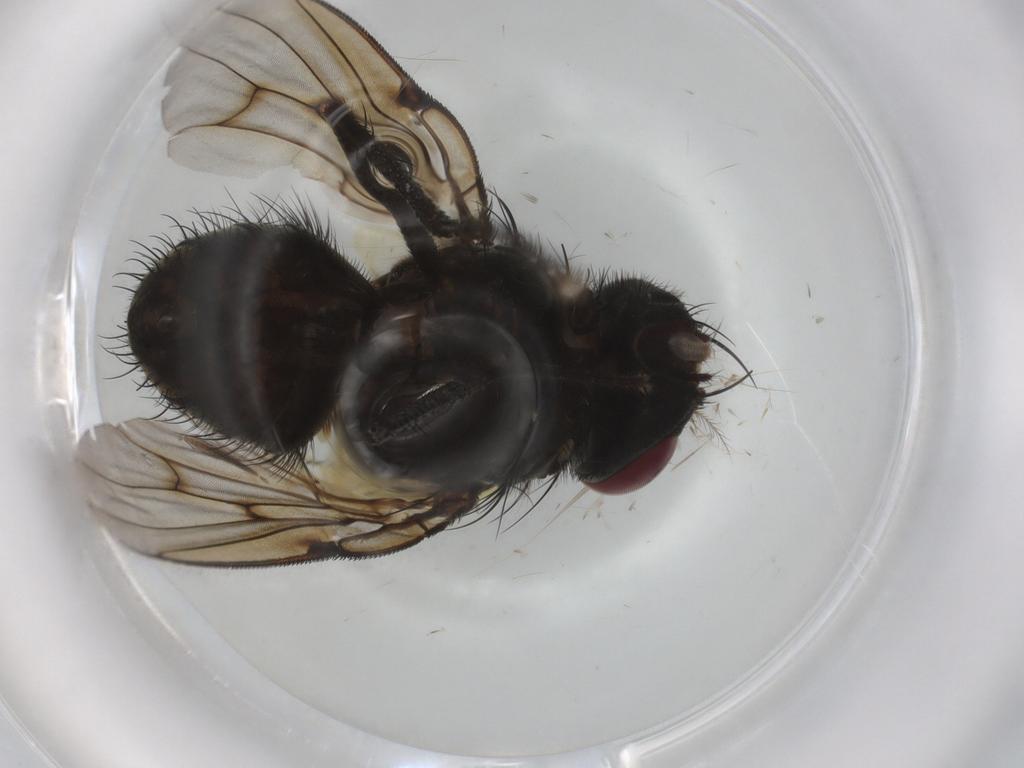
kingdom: Animalia
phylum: Arthropoda
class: Insecta
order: Diptera
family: Muscidae
